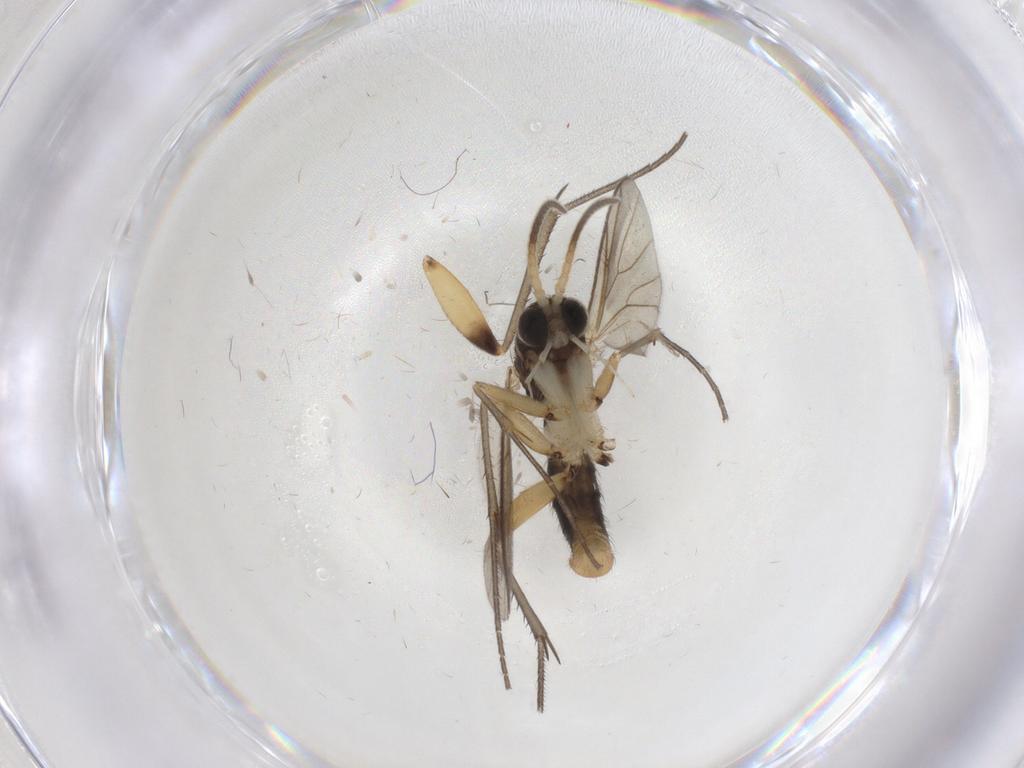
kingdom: Animalia
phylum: Arthropoda
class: Insecta
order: Diptera
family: Mycetophilidae
